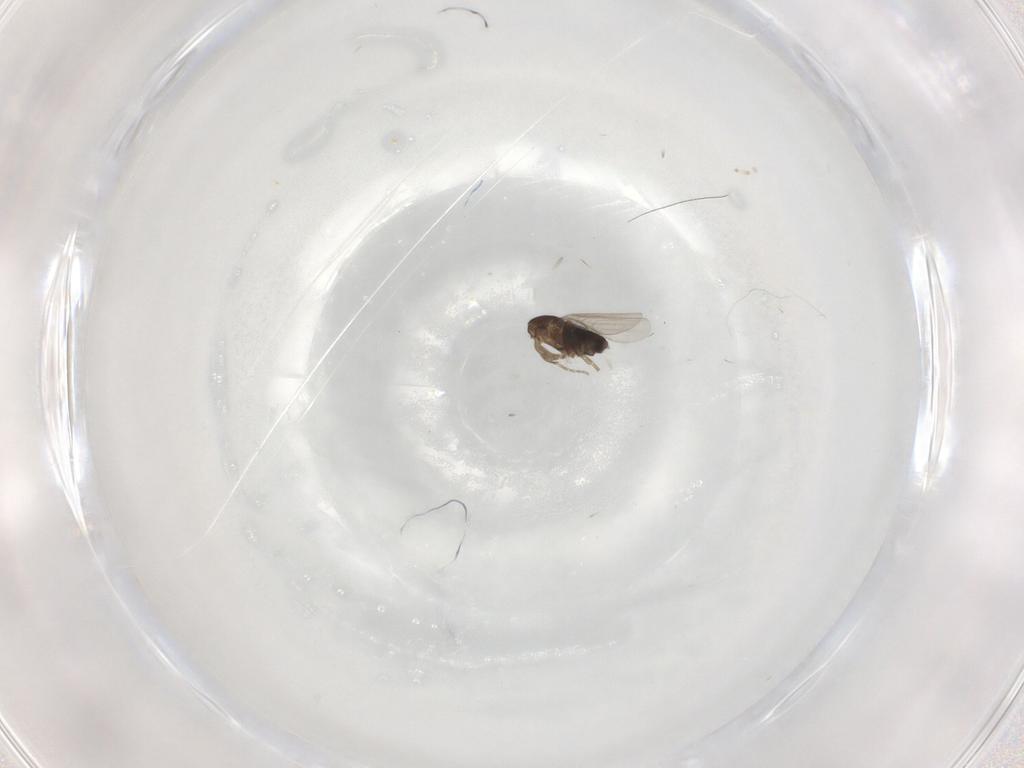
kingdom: Animalia
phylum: Arthropoda
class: Insecta
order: Diptera
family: Phoridae
